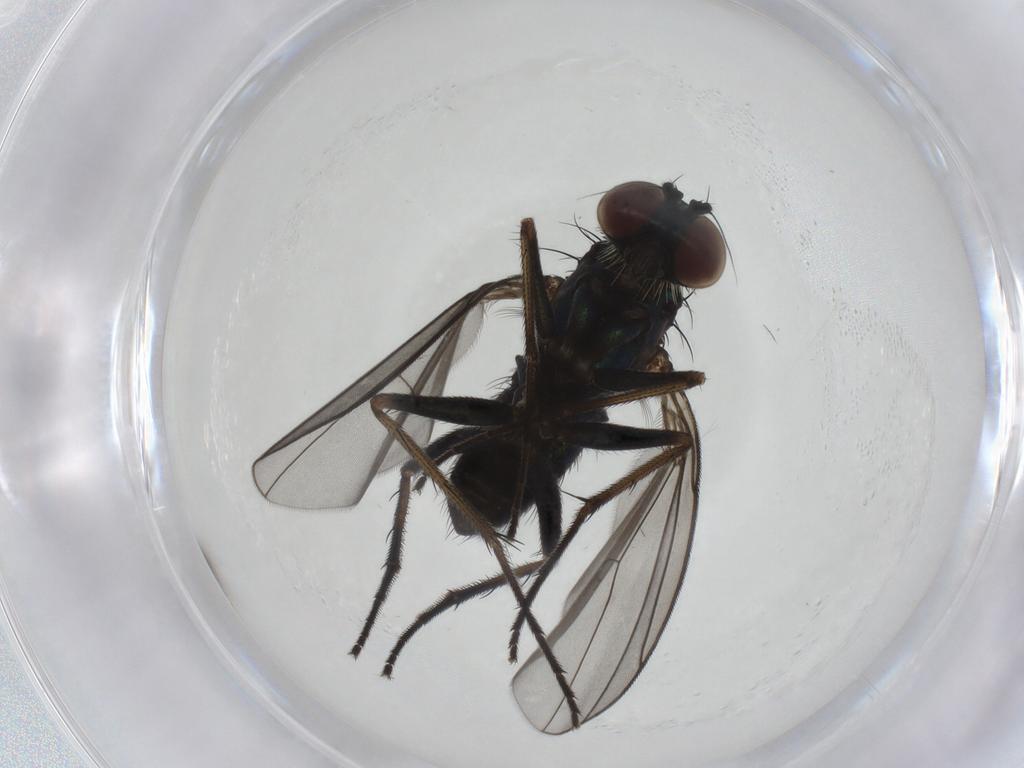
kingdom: Animalia
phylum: Arthropoda
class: Insecta
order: Diptera
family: Dolichopodidae
